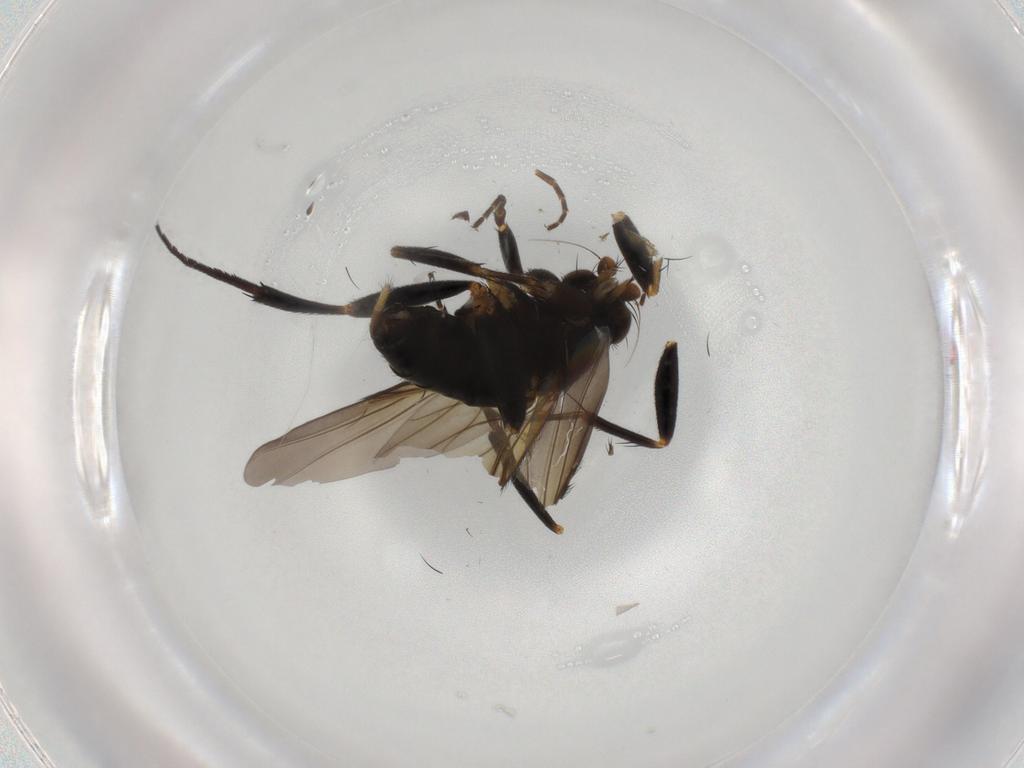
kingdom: Animalia
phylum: Arthropoda
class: Insecta
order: Diptera
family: Phoridae
